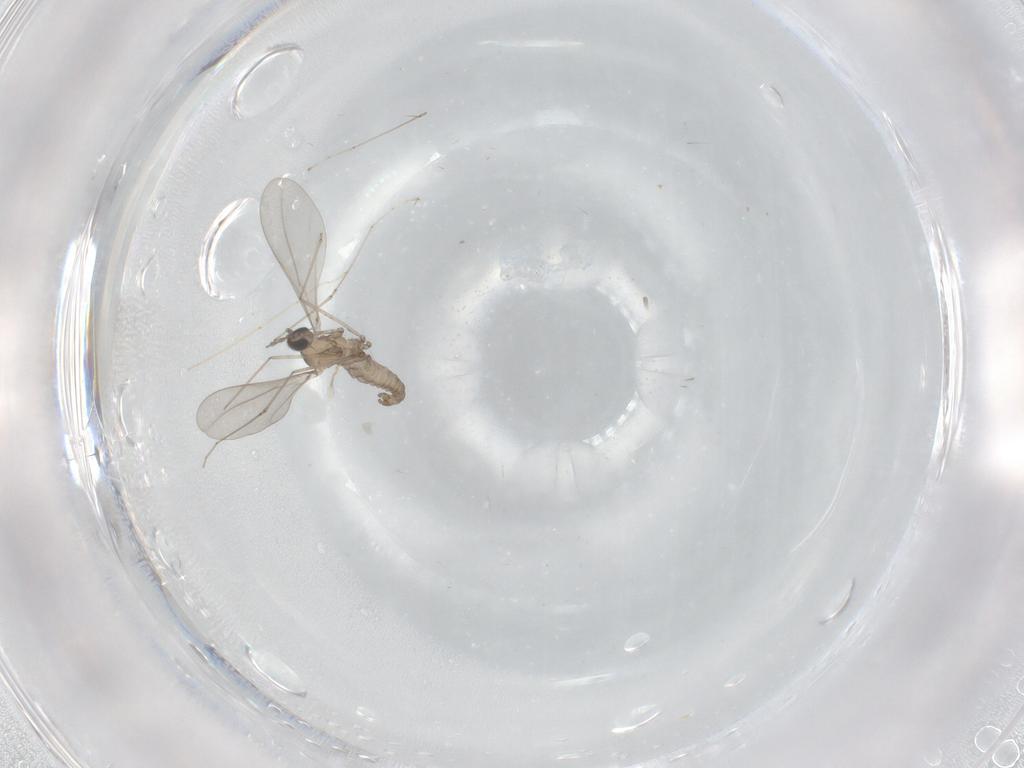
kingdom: Animalia
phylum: Arthropoda
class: Insecta
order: Diptera
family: Cecidomyiidae
